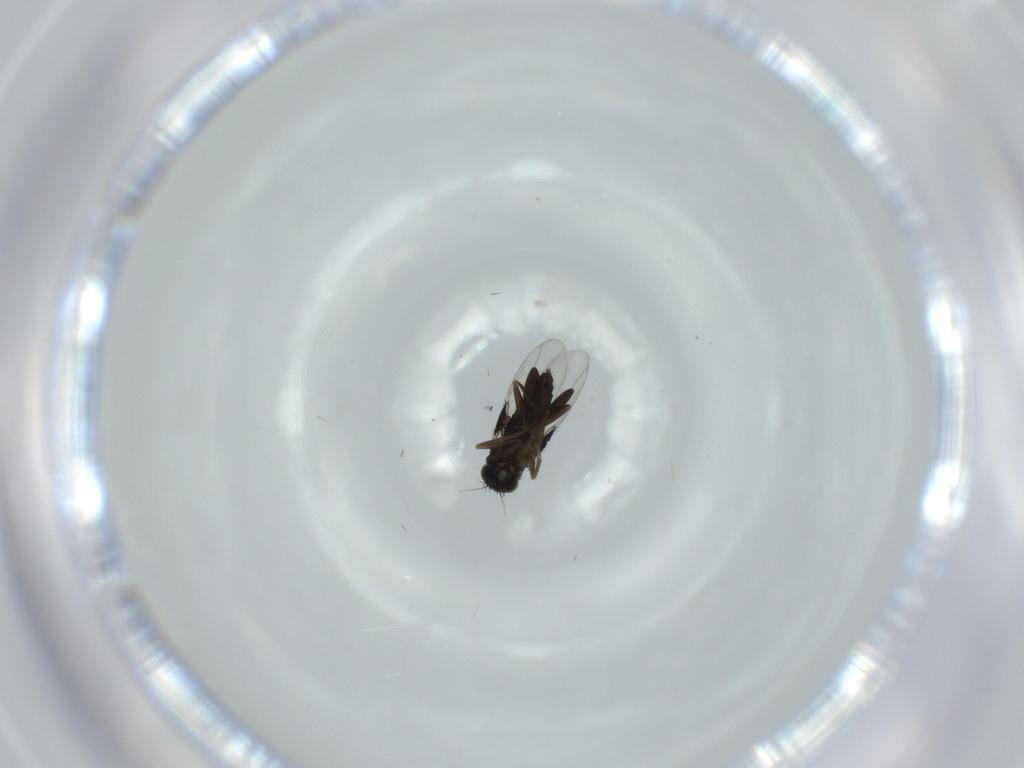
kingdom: Animalia
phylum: Arthropoda
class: Insecta
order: Diptera
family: Phoridae
